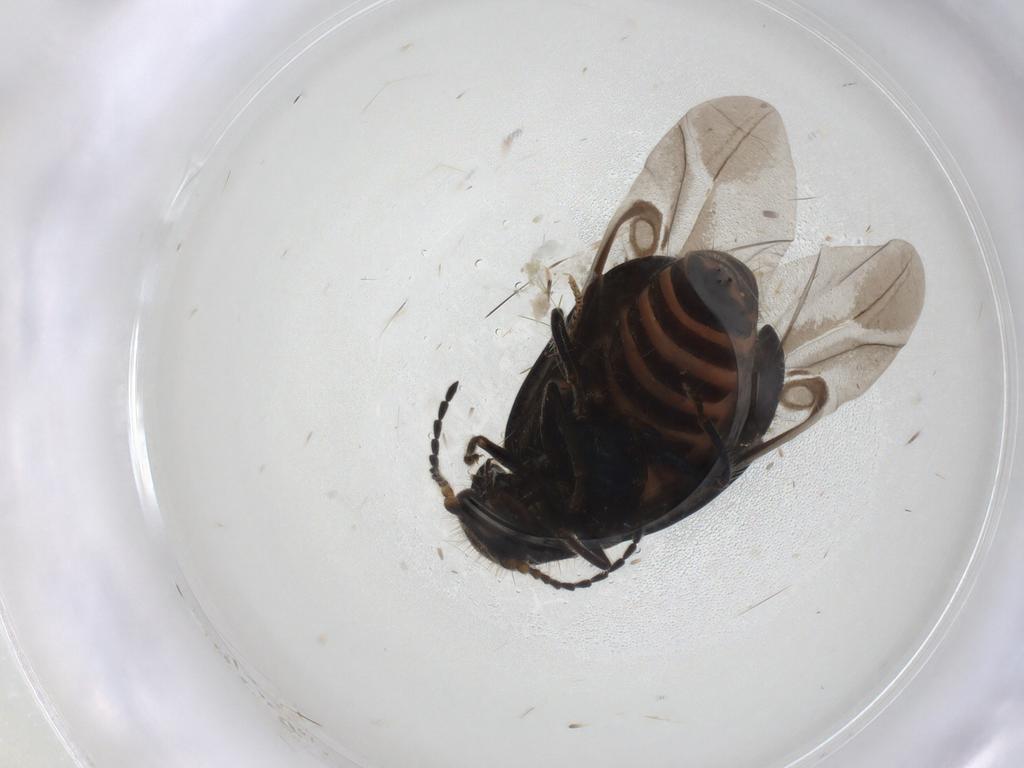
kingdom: Animalia
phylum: Arthropoda
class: Insecta
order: Coleoptera
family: Melyridae
